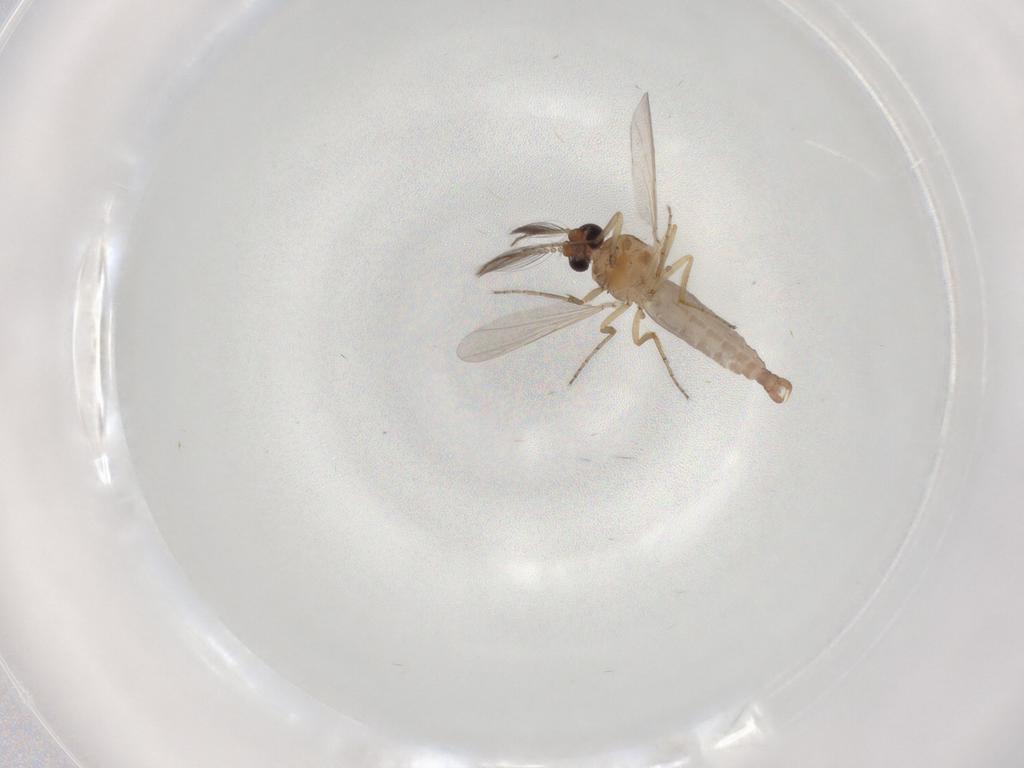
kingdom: Animalia
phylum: Arthropoda
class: Insecta
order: Diptera
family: Ceratopogonidae
